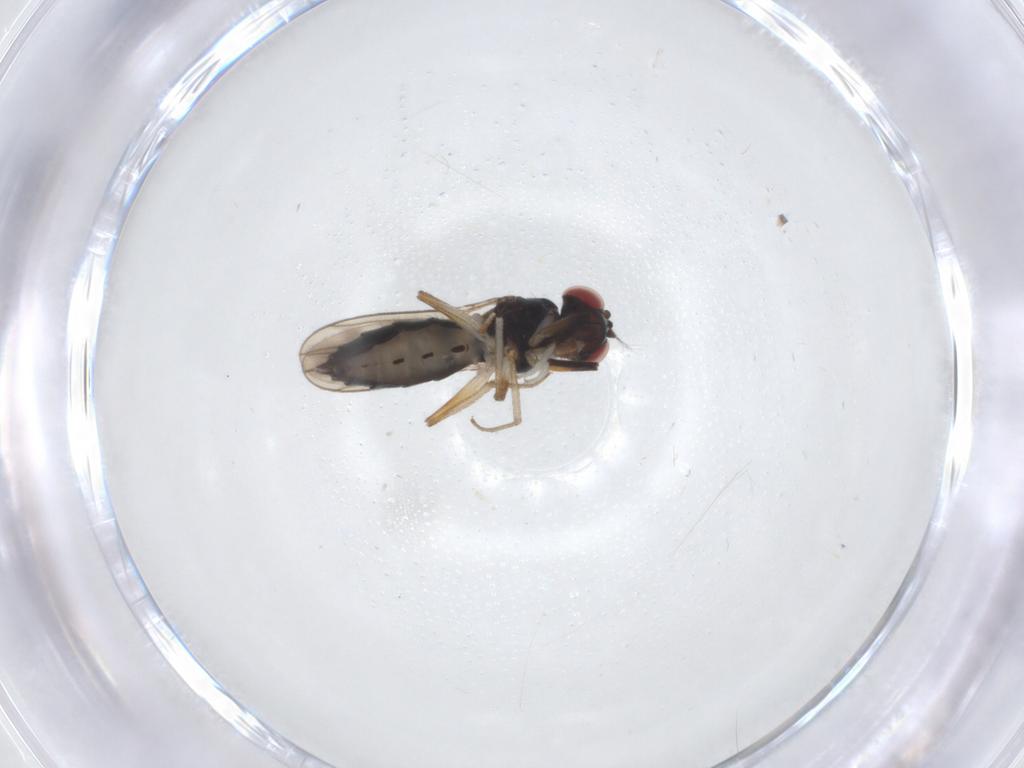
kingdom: Animalia
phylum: Arthropoda
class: Insecta
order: Diptera
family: Drosophilidae
